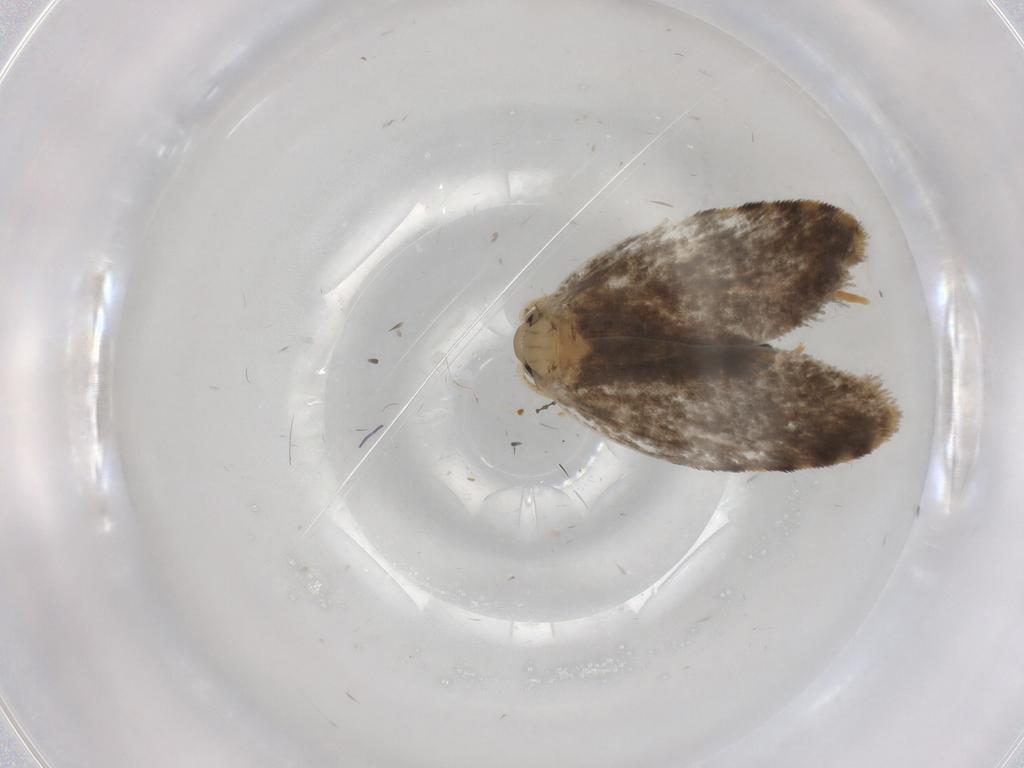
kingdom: Animalia
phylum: Arthropoda
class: Insecta
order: Lepidoptera
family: Psychidae
